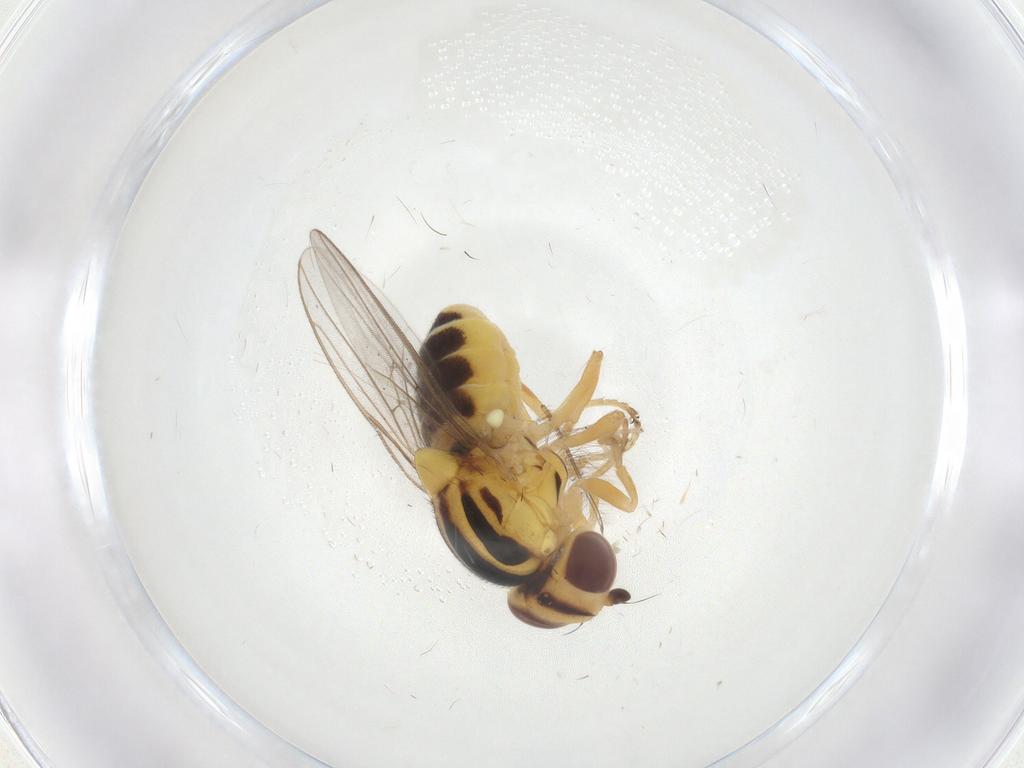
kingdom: Animalia
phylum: Arthropoda
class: Insecta
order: Diptera
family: Chloropidae
